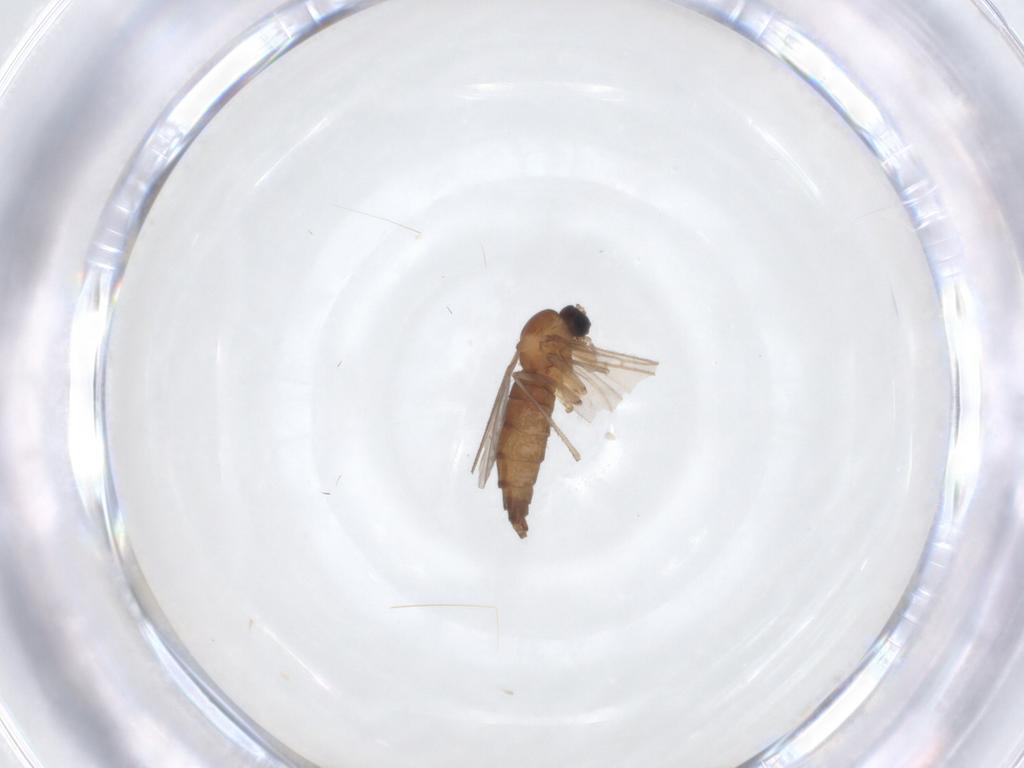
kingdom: Animalia
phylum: Arthropoda
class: Insecta
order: Diptera
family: Sciaridae
